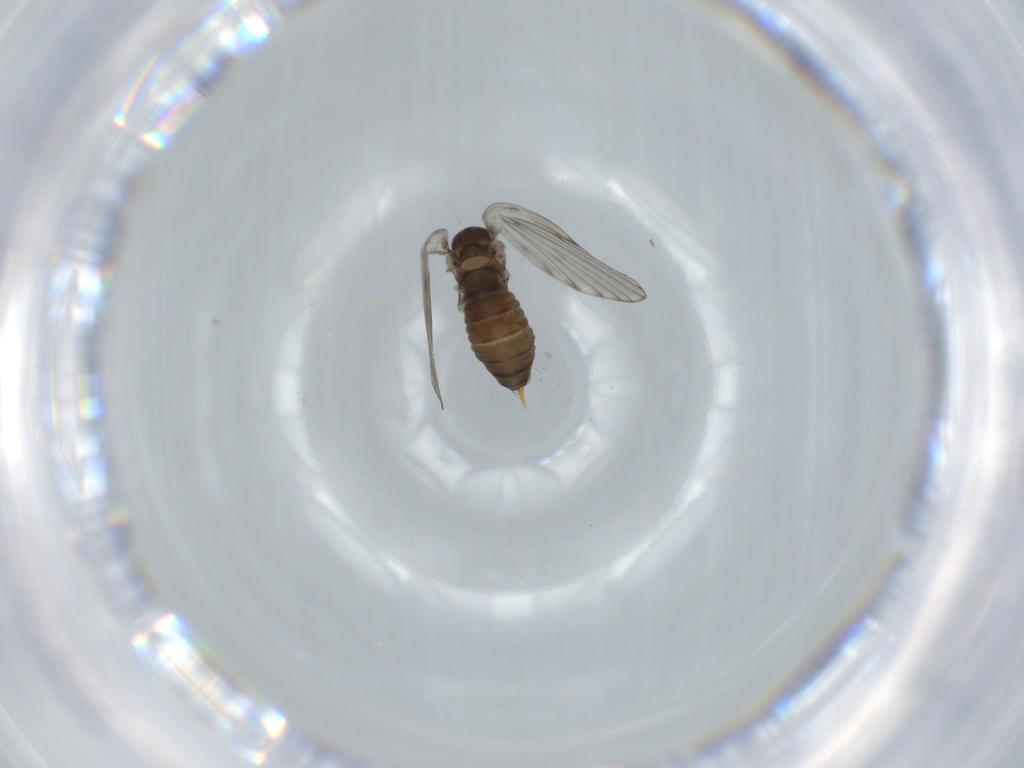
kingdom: Animalia
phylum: Arthropoda
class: Insecta
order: Diptera
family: Psychodidae
